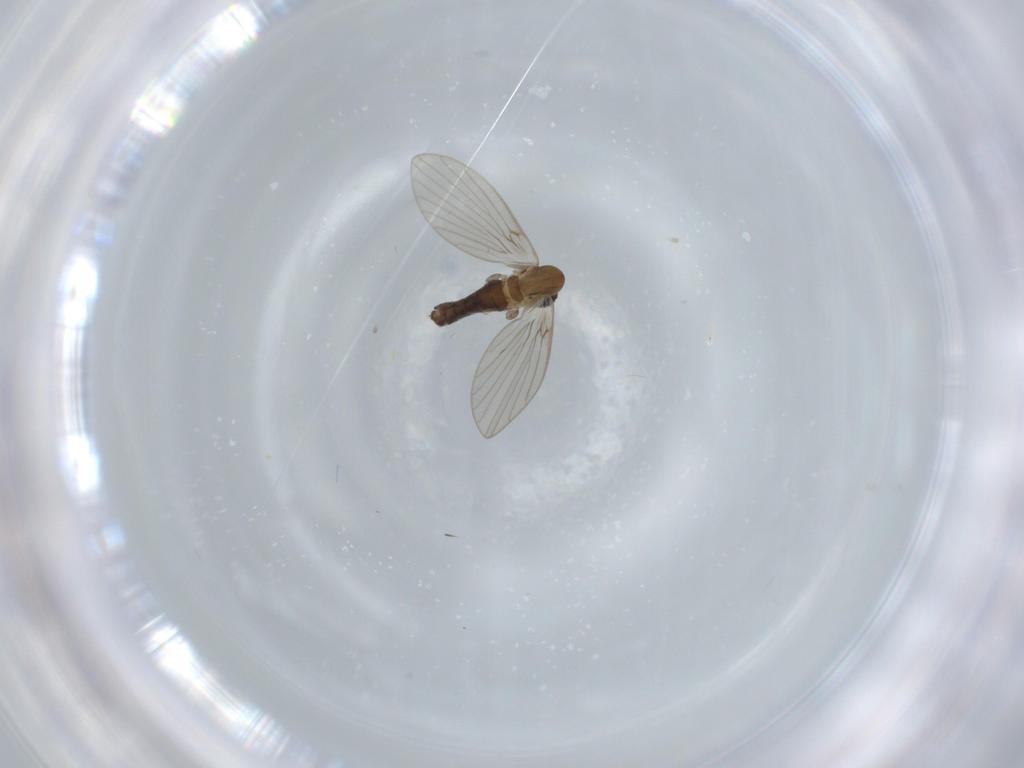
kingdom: Animalia
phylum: Arthropoda
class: Insecta
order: Diptera
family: Psychodidae
